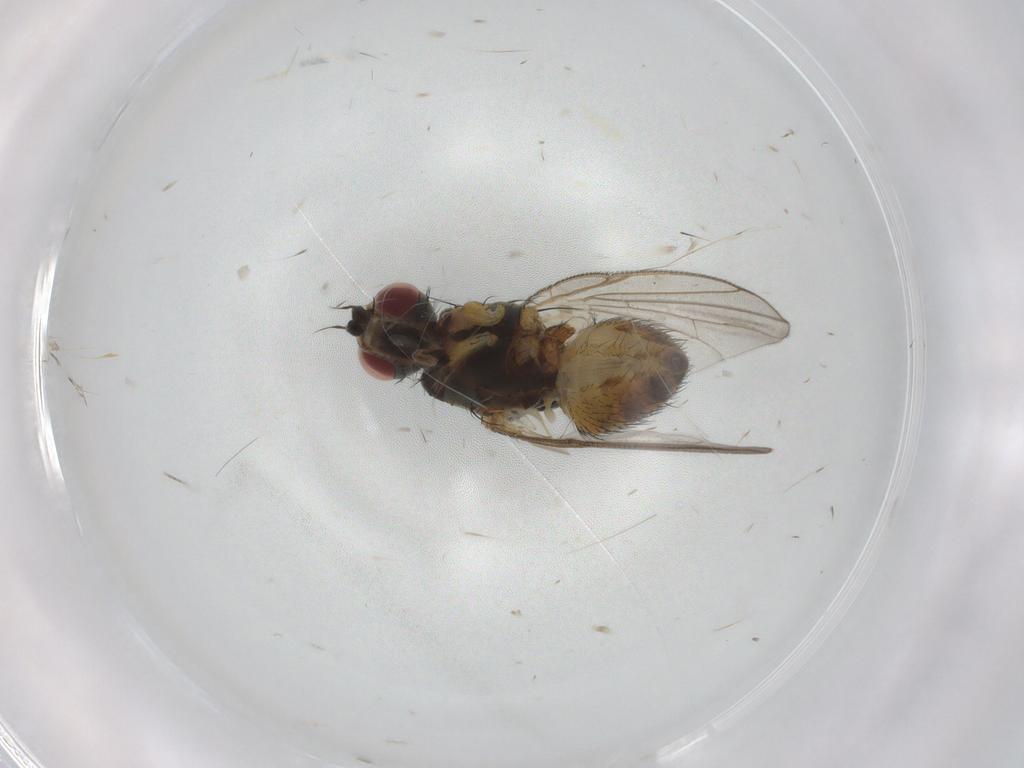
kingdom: Animalia
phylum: Arthropoda
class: Insecta
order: Diptera
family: Muscidae
